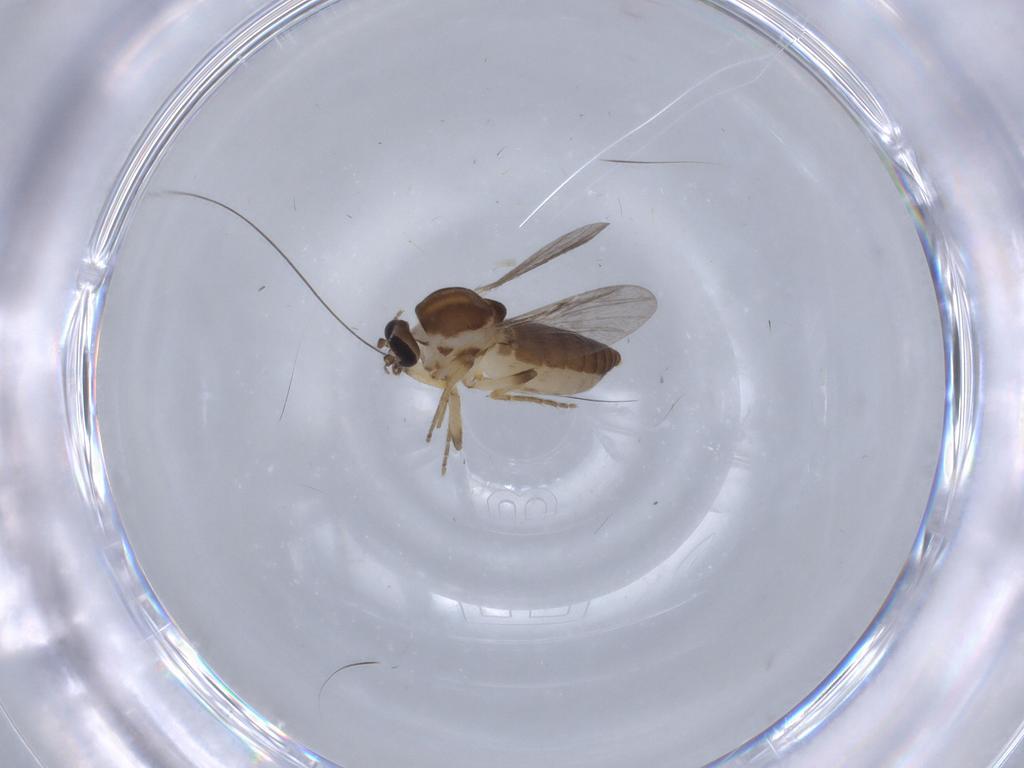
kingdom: Animalia
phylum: Arthropoda
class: Insecta
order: Diptera
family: Ceratopogonidae
